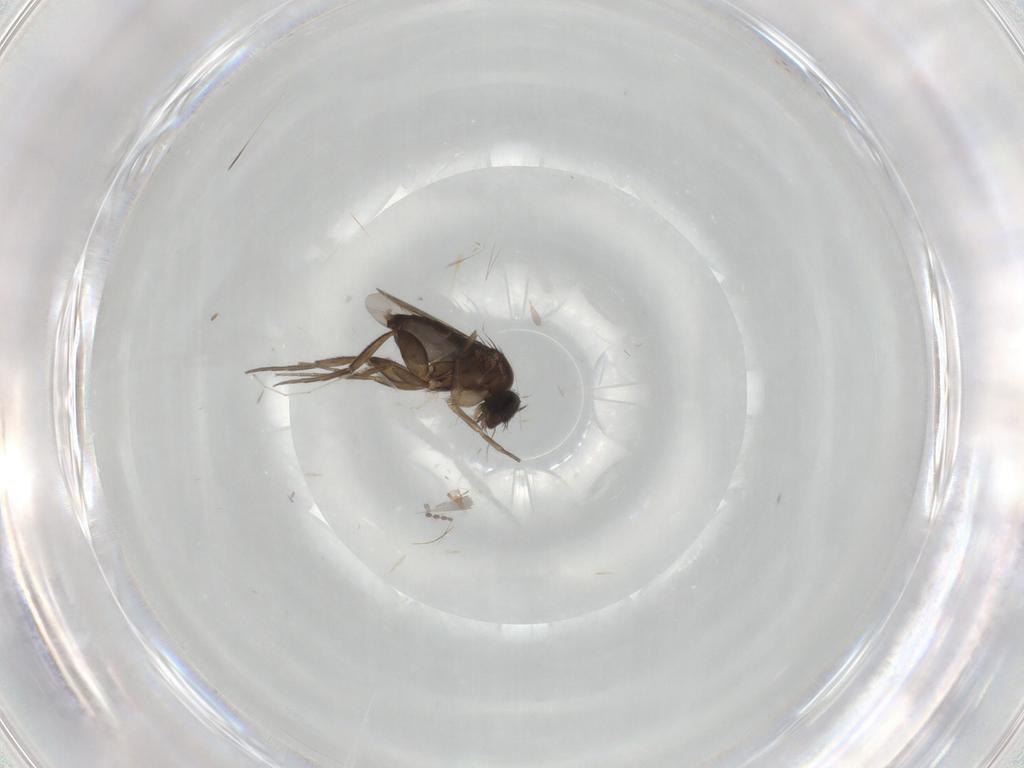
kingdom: Animalia
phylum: Arthropoda
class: Insecta
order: Diptera
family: Phoridae
